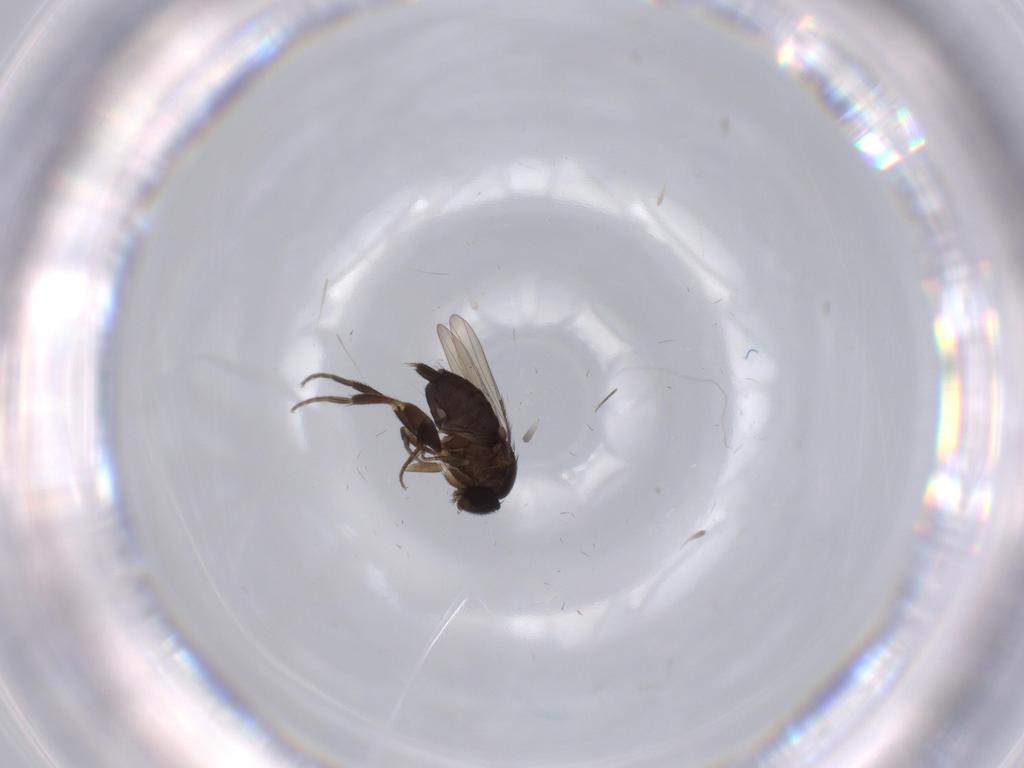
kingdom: Animalia
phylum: Arthropoda
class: Insecta
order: Diptera
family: Phoridae
